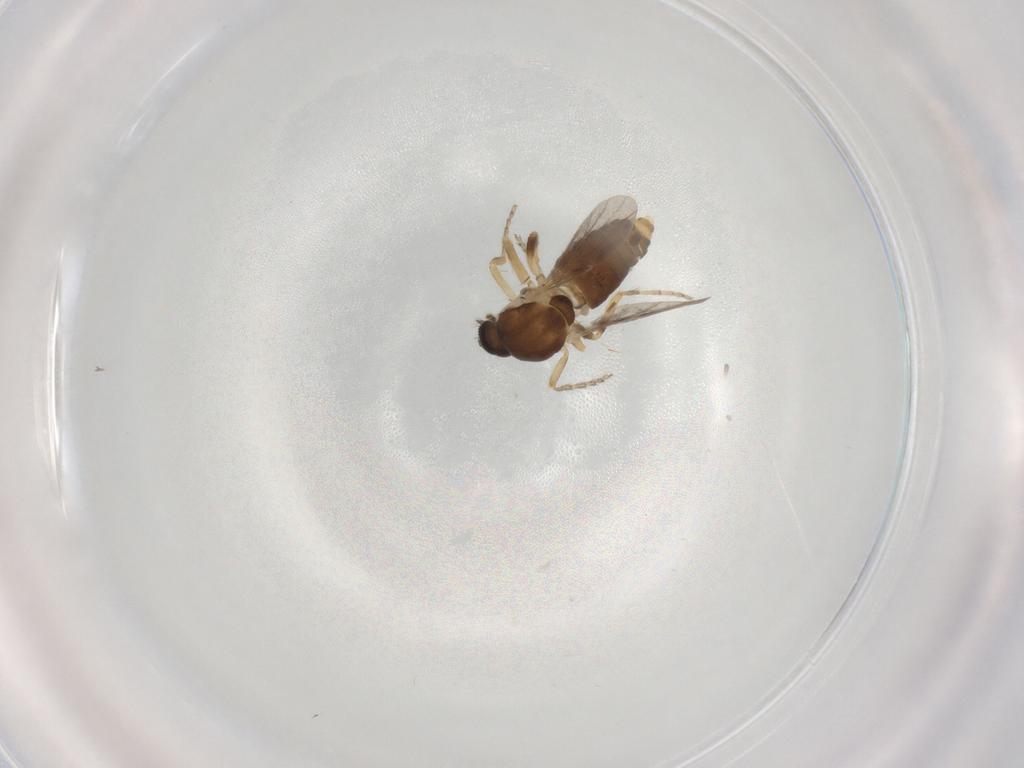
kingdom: Animalia
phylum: Arthropoda
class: Insecta
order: Diptera
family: Ceratopogonidae
